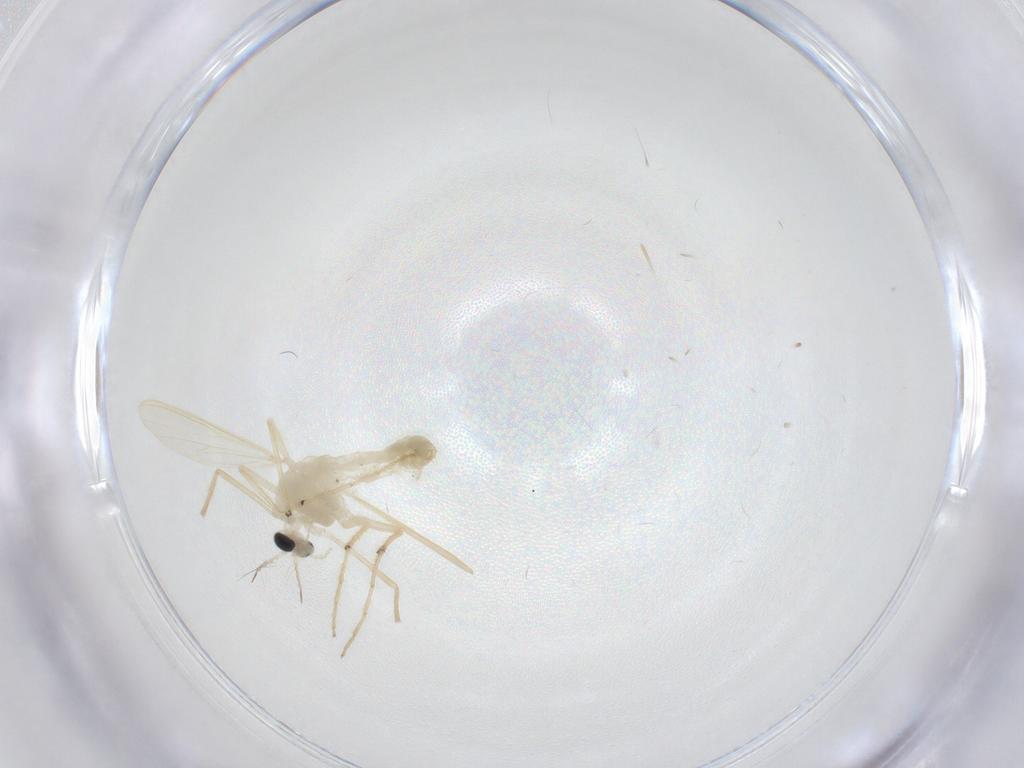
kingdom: Animalia
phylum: Arthropoda
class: Insecta
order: Diptera
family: Chironomidae
